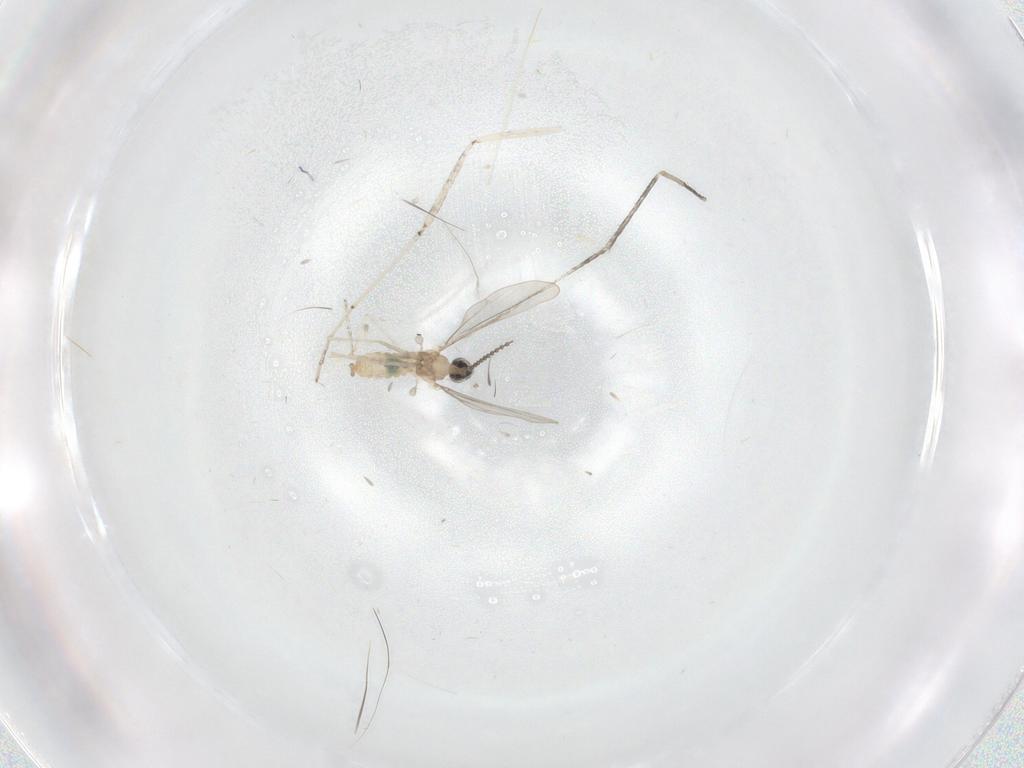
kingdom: Animalia
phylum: Arthropoda
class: Insecta
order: Diptera
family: Cecidomyiidae
